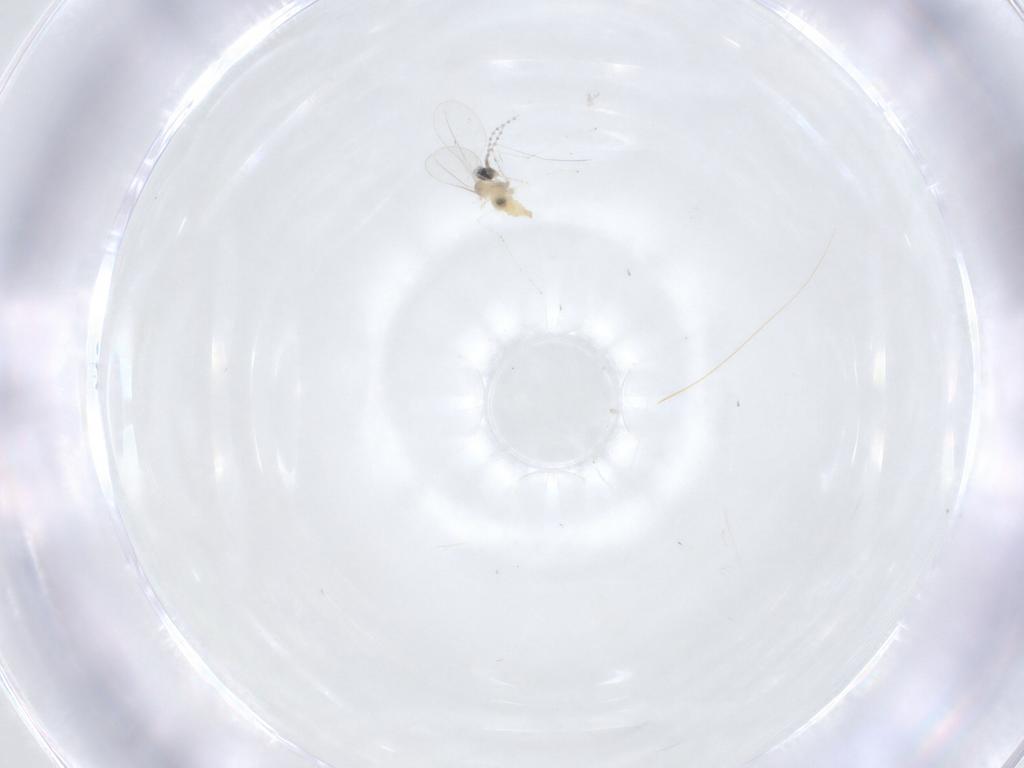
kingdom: Animalia
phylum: Arthropoda
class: Insecta
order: Diptera
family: Cecidomyiidae
